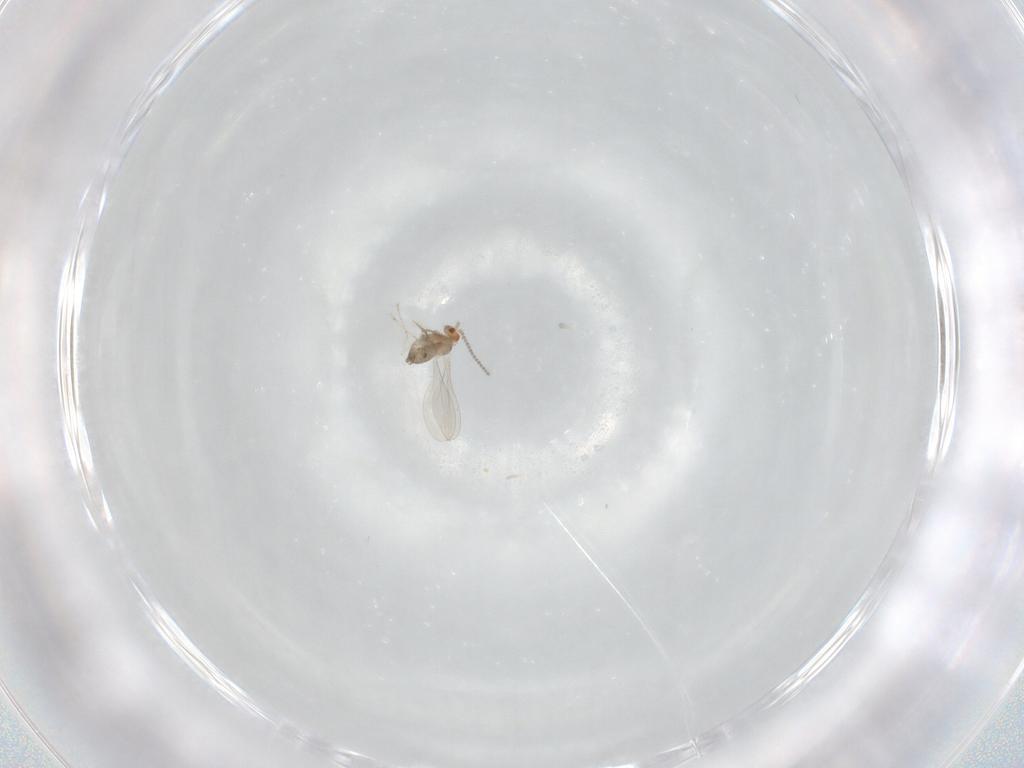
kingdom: Animalia
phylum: Arthropoda
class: Insecta
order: Diptera
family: Cecidomyiidae
